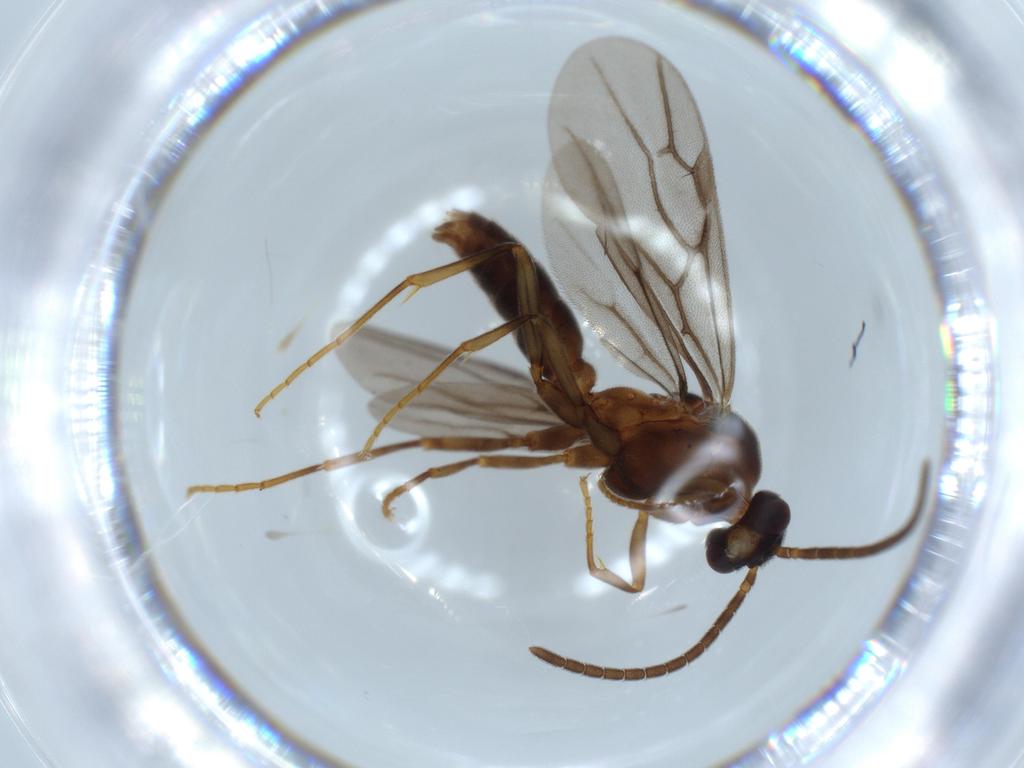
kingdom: Animalia
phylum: Arthropoda
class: Insecta
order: Hymenoptera
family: Formicidae
